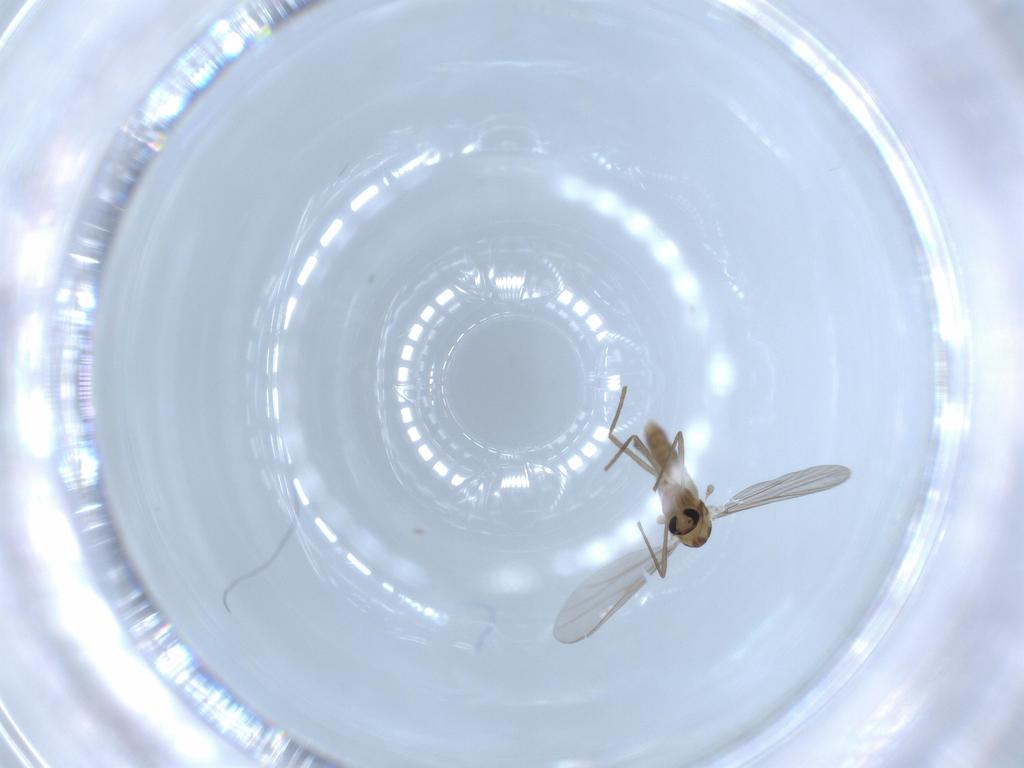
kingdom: Animalia
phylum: Arthropoda
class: Insecta
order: Diptera
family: Chironomidae
